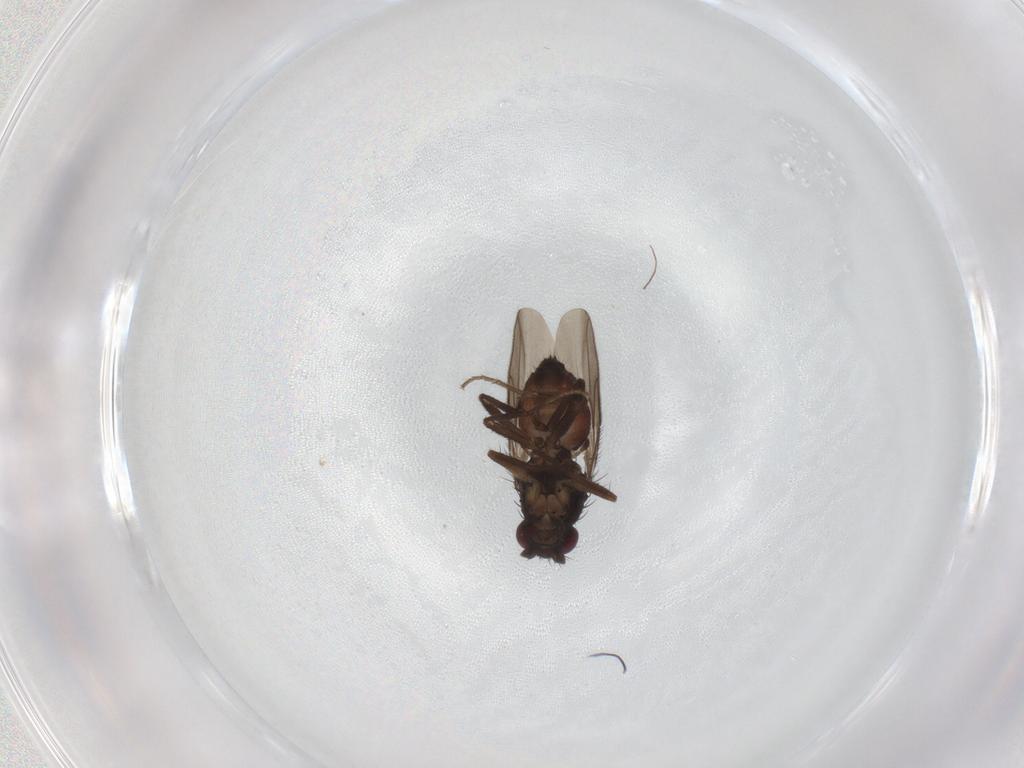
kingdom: Animalia
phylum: Arthropoda
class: Insecta
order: Diptera
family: Sphaeroceridae
